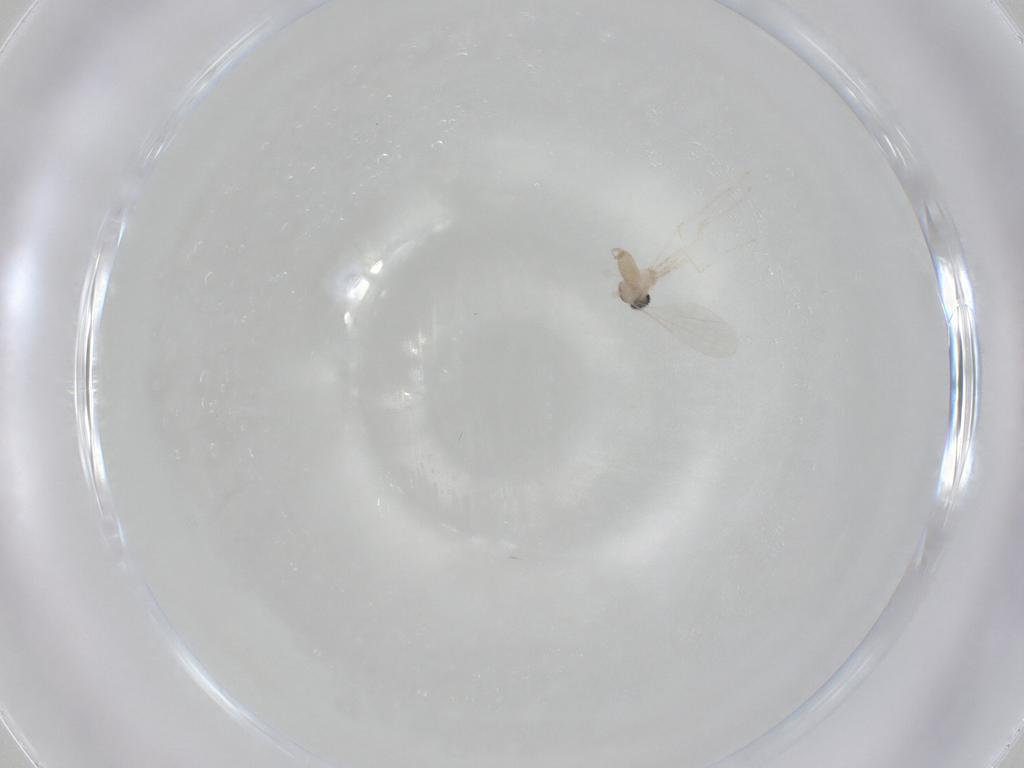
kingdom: Animalia
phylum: Arthropoda
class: Insecta
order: Diptera
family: Cecidomyiidae
